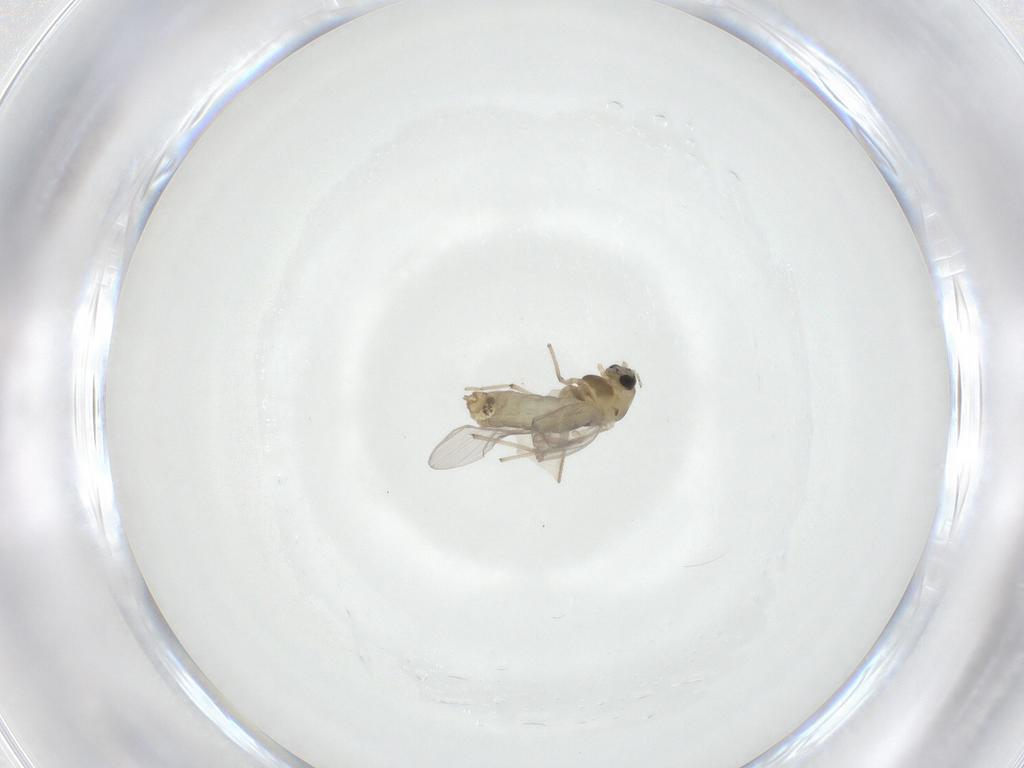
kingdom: Animalia
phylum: Arthropoda
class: Insecta
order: Diptera
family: Chironomidae
